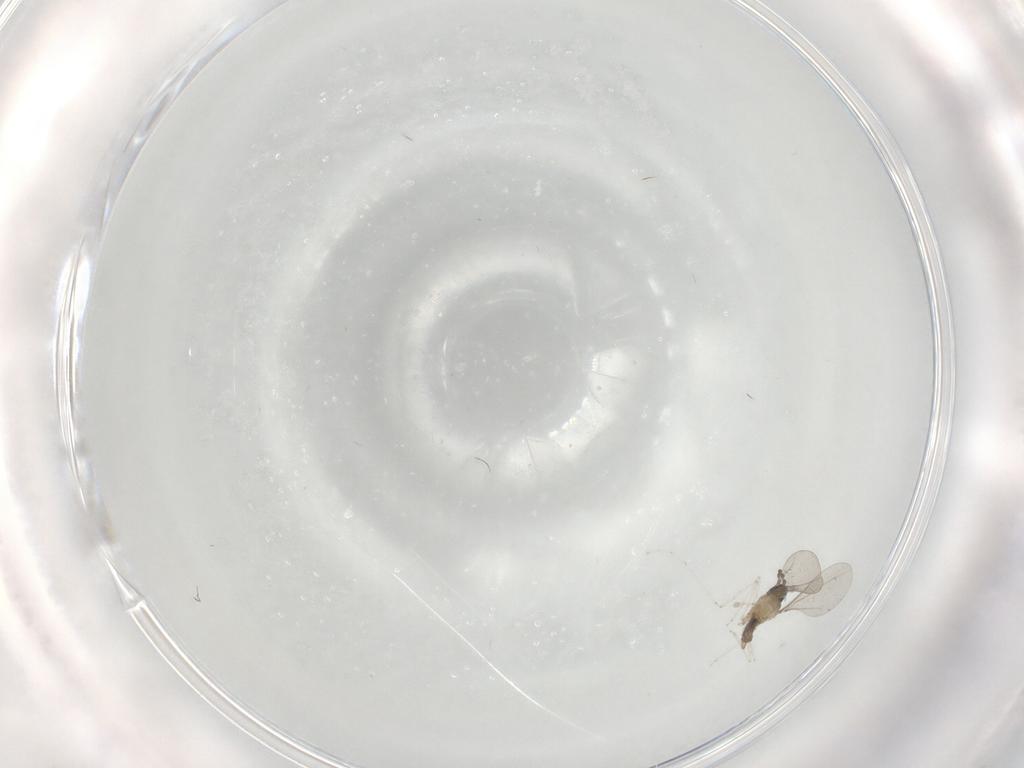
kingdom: Animalia
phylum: Arthropoda
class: Insecta
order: Diptera
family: Cecidomyiidae
